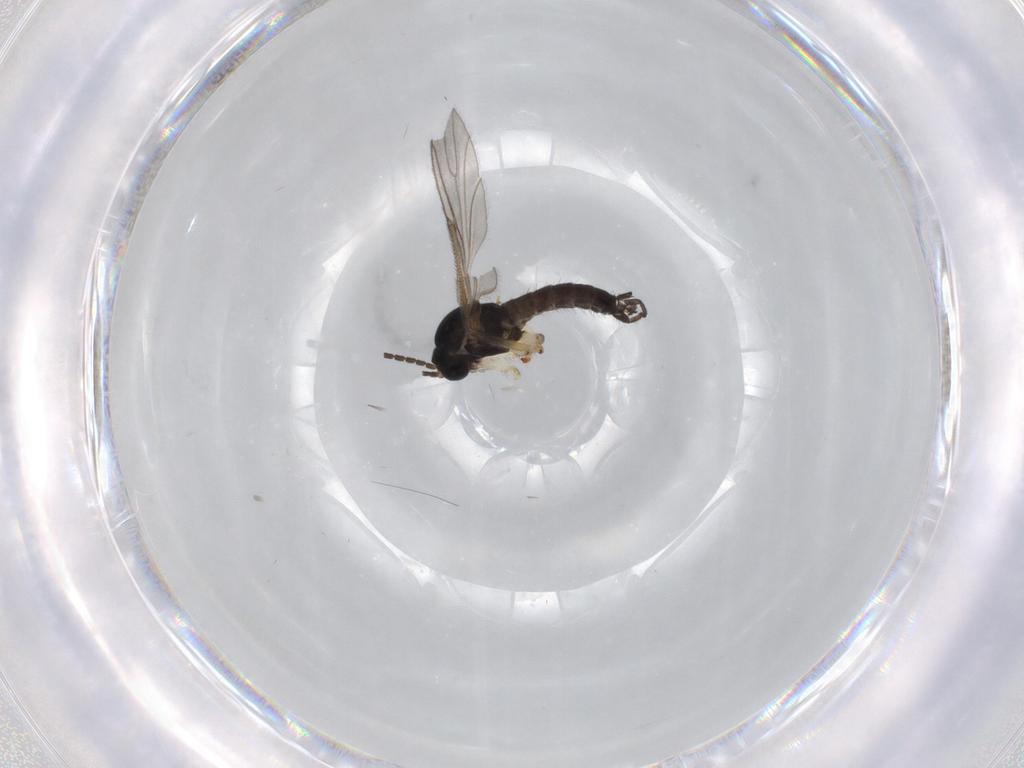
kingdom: Animalia
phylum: Arthropoda
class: Insecta
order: Diptera
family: Sciaridae
